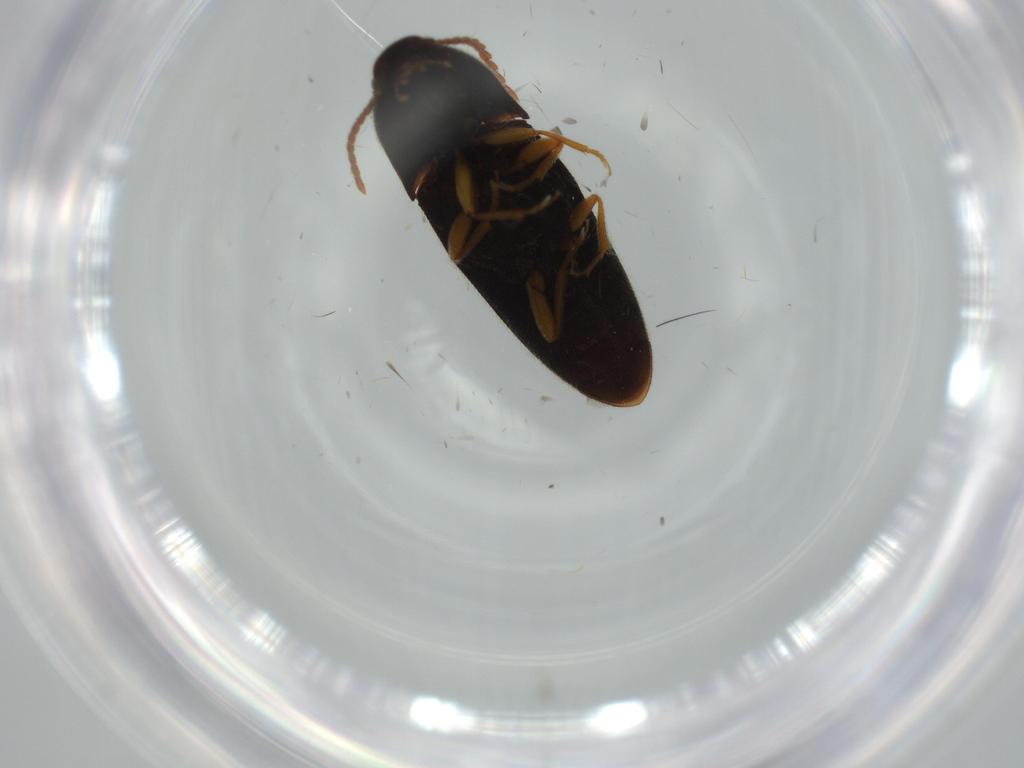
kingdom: Animalia
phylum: Arthropoda
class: Insecta
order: Coleoptera
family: Elateridae
